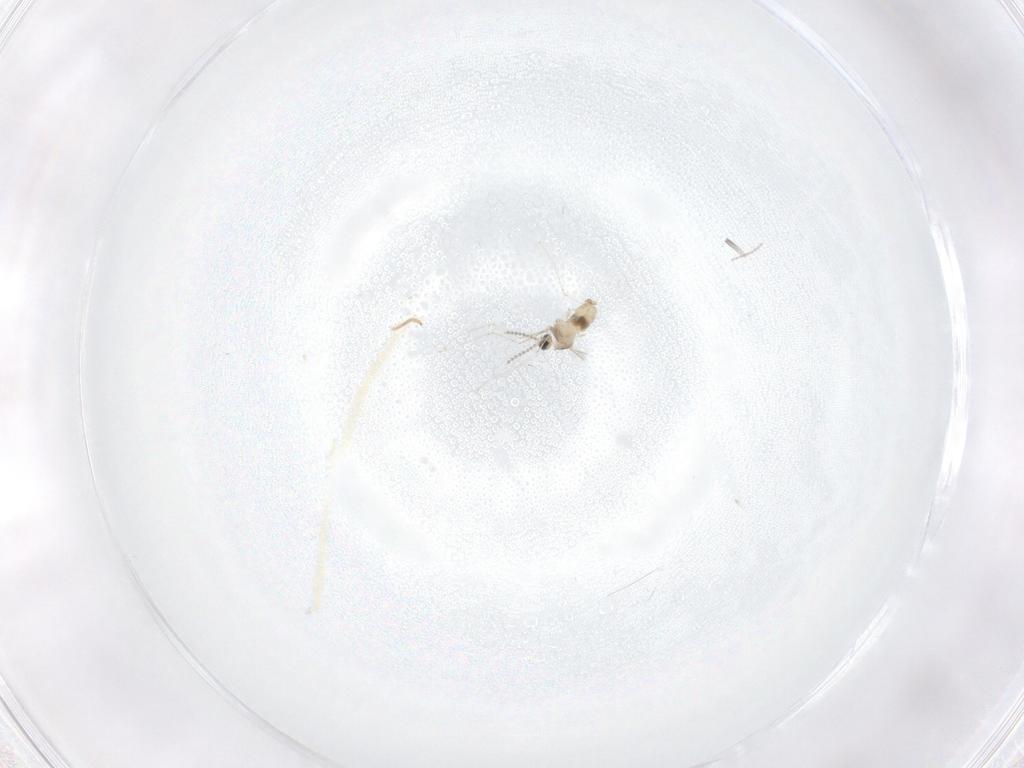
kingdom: Animalia
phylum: Arthropoda
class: Insecta
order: Diptera
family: Cecidomyiidae
